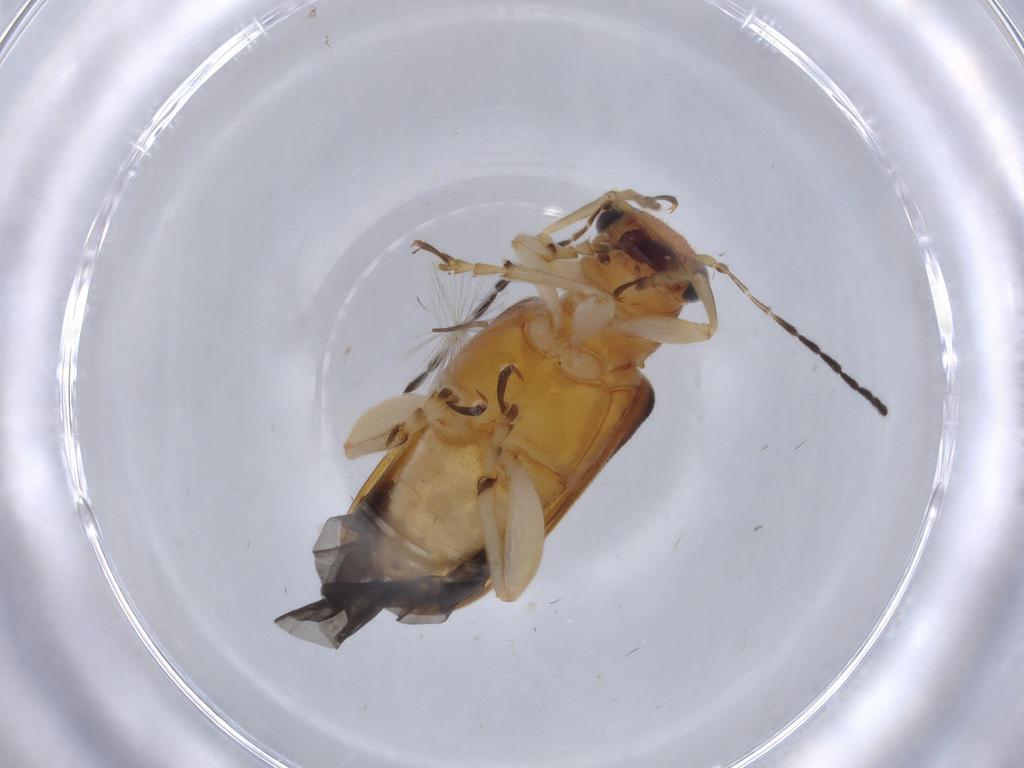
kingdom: Animalia
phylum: Arthropoda
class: Insecta
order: Coleoptera
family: Chrysomelidae
